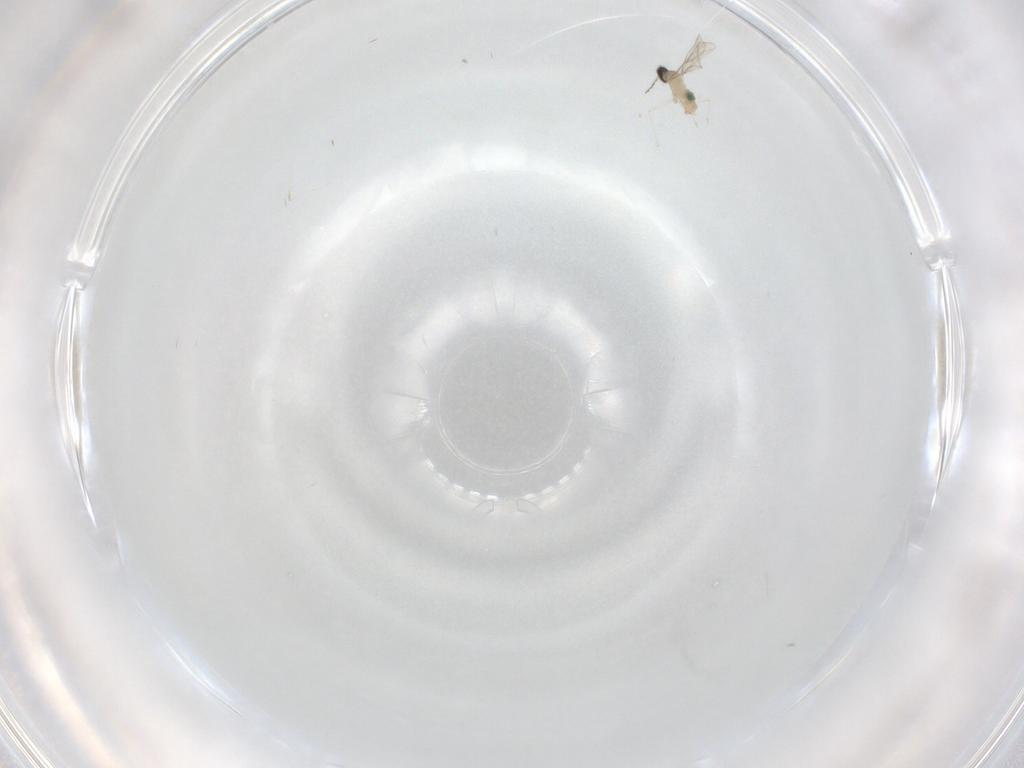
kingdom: Animalia
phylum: Arthropoda
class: Insecta
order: Diptera
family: Cecidomyiidae
